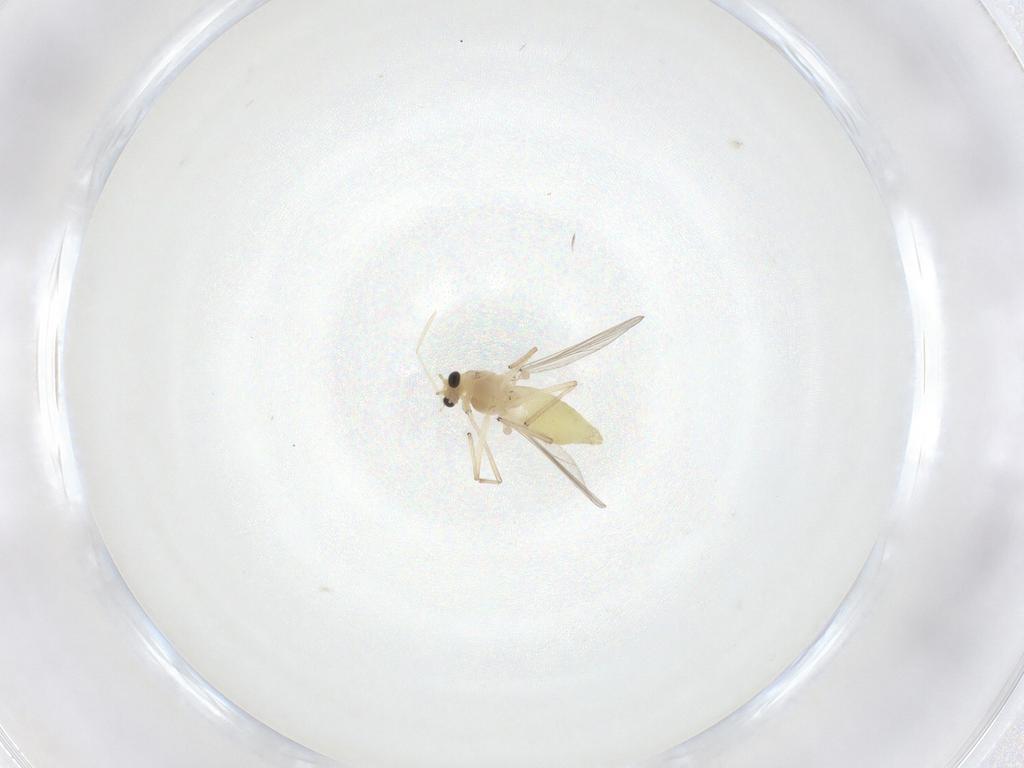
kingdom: Animalia
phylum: Arthropoda
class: Insecta
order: Diptera
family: Chironomidae
